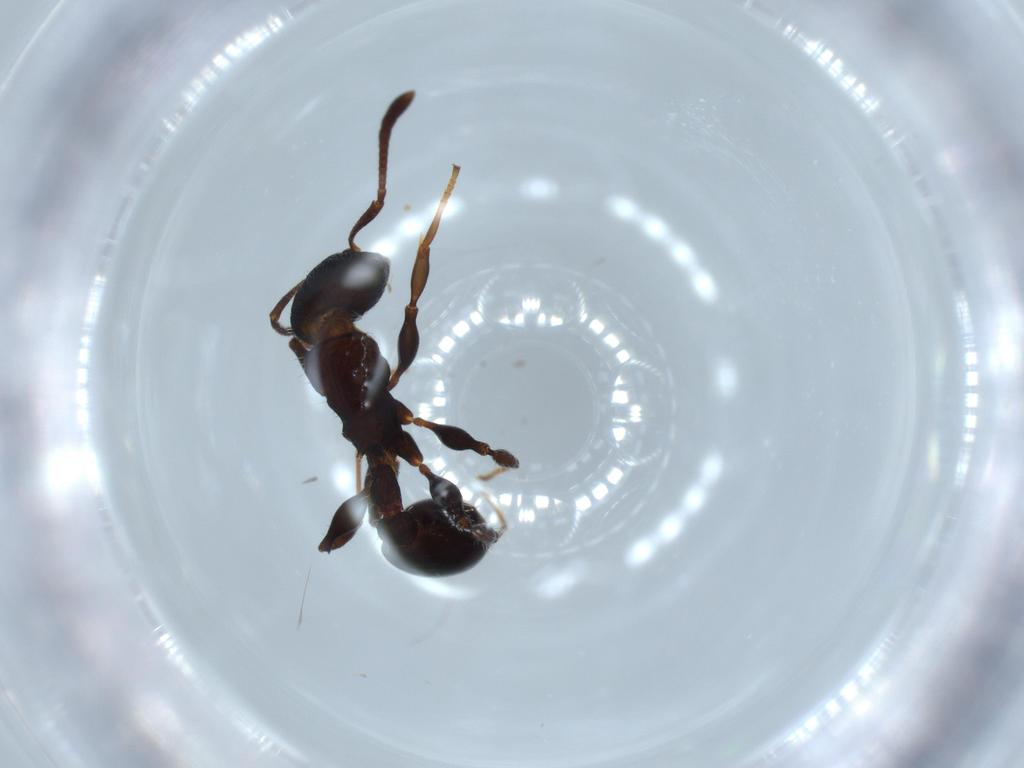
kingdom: Animalia
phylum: Arthropoda
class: Insecta
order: Hymenoptera
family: Formicidae
